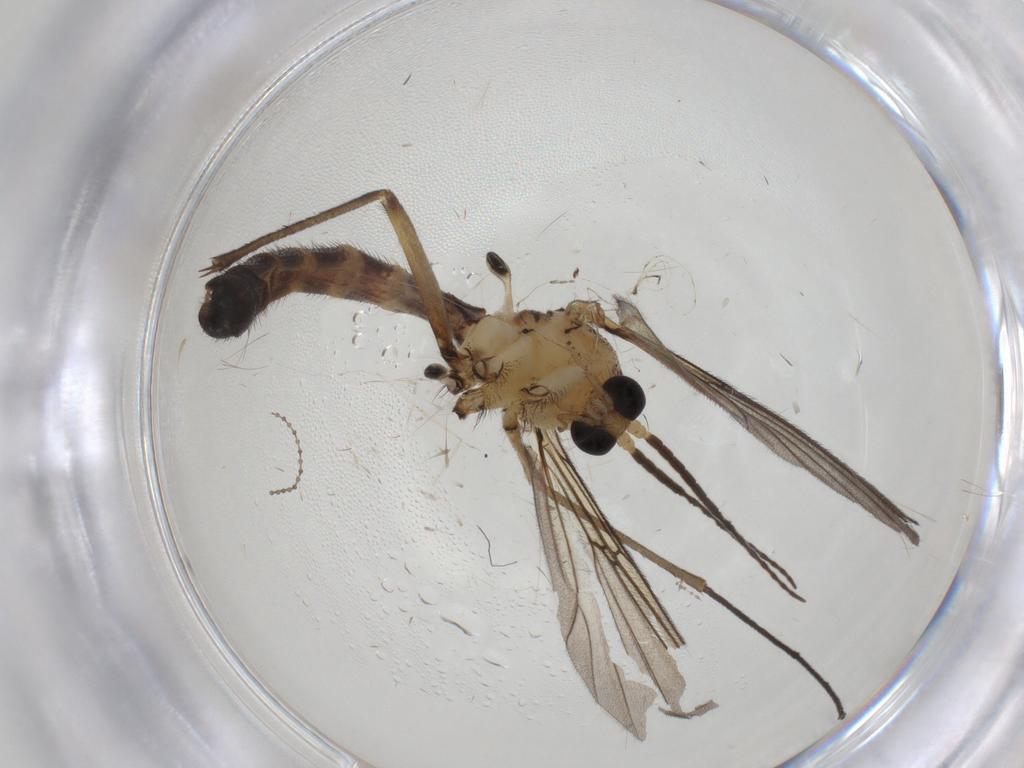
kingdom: Animalia
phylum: Arthropoda
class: Insecta
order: Diptera
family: Mycetophilidae
